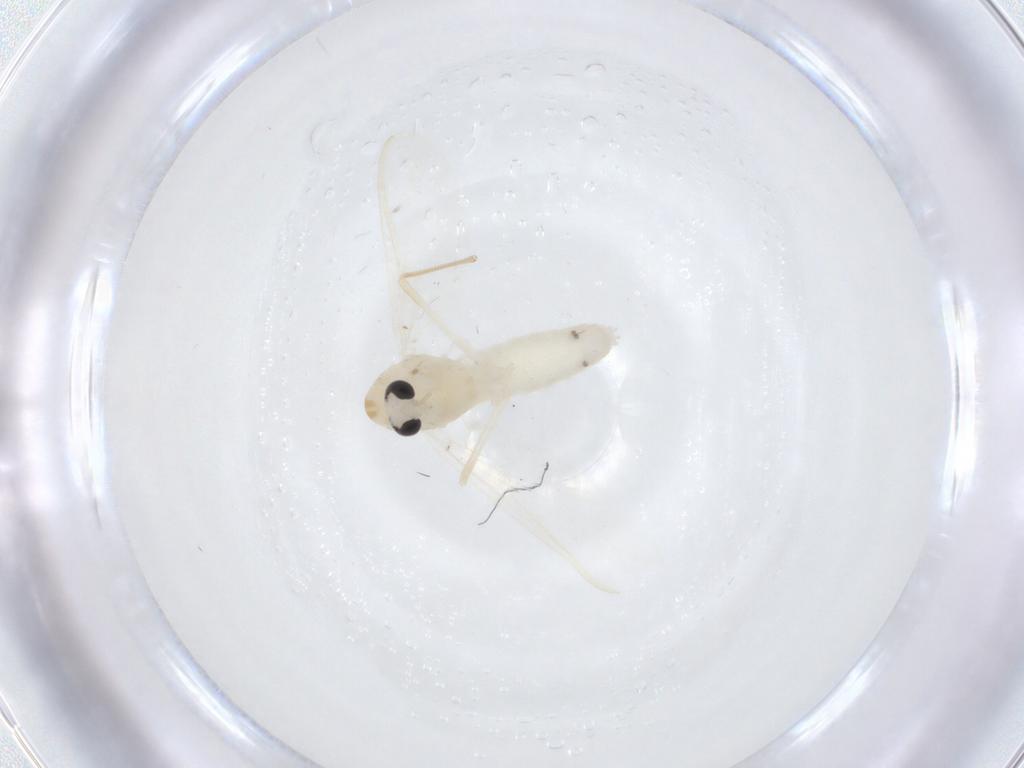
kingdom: Animalia
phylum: Arthropoda
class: Insecta
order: Diptera
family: Chironomidae
